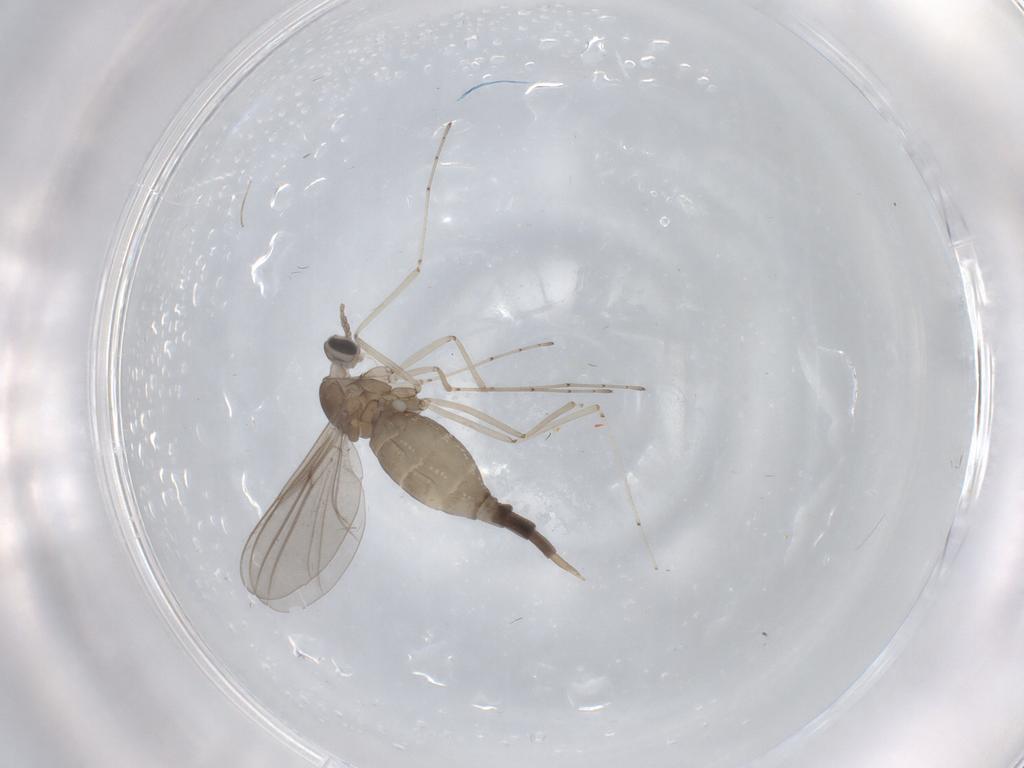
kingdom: Animalia
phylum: Arthropoda
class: Insecta
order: Diptera
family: Cecidomyiidae
